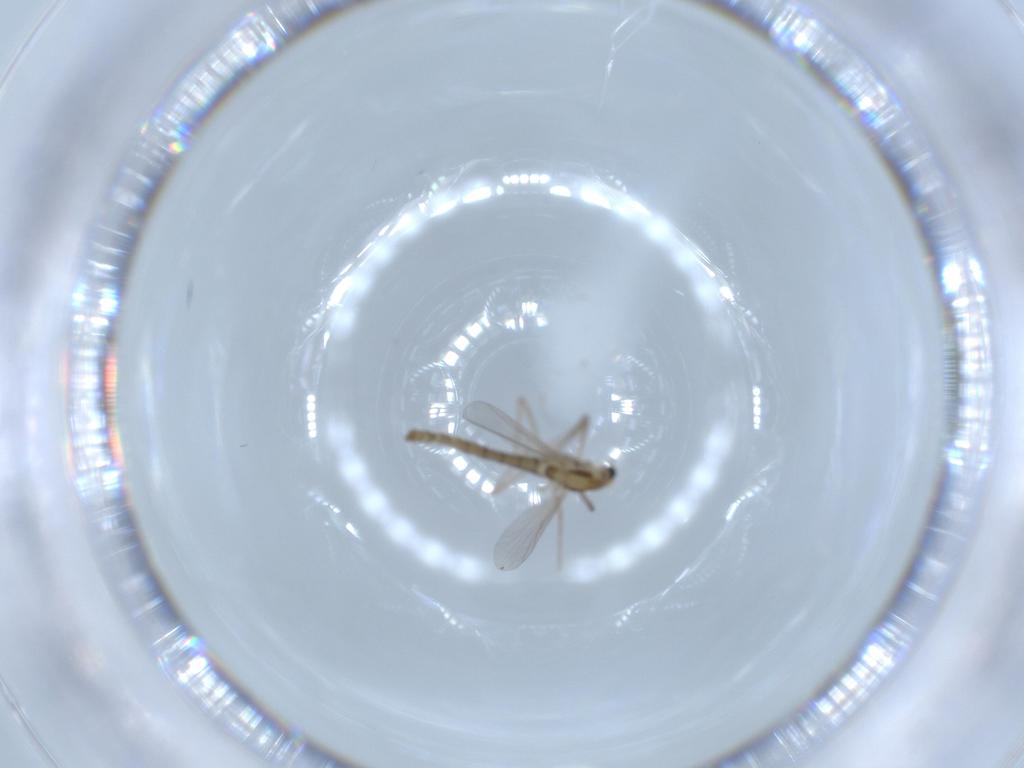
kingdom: Animalia
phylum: Arthropoda
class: Insecta
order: Diptera
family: Chironomidae
